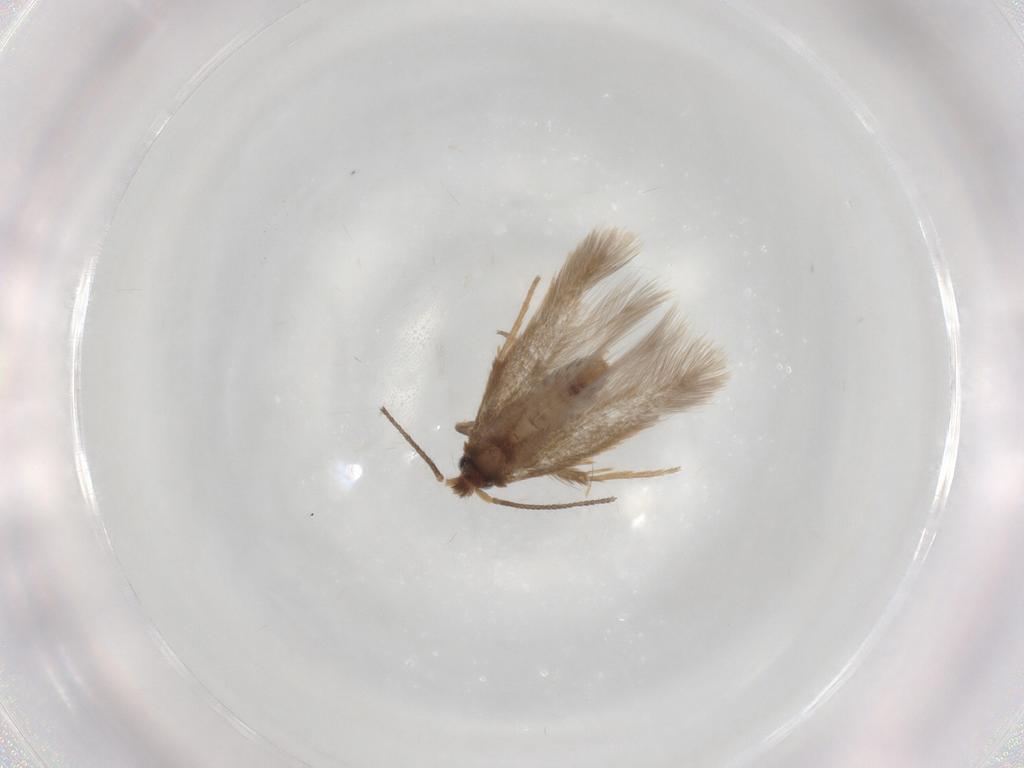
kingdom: Animalia
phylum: Arthropoda
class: Insecta
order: Lepidoptera
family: Nepticulidae
